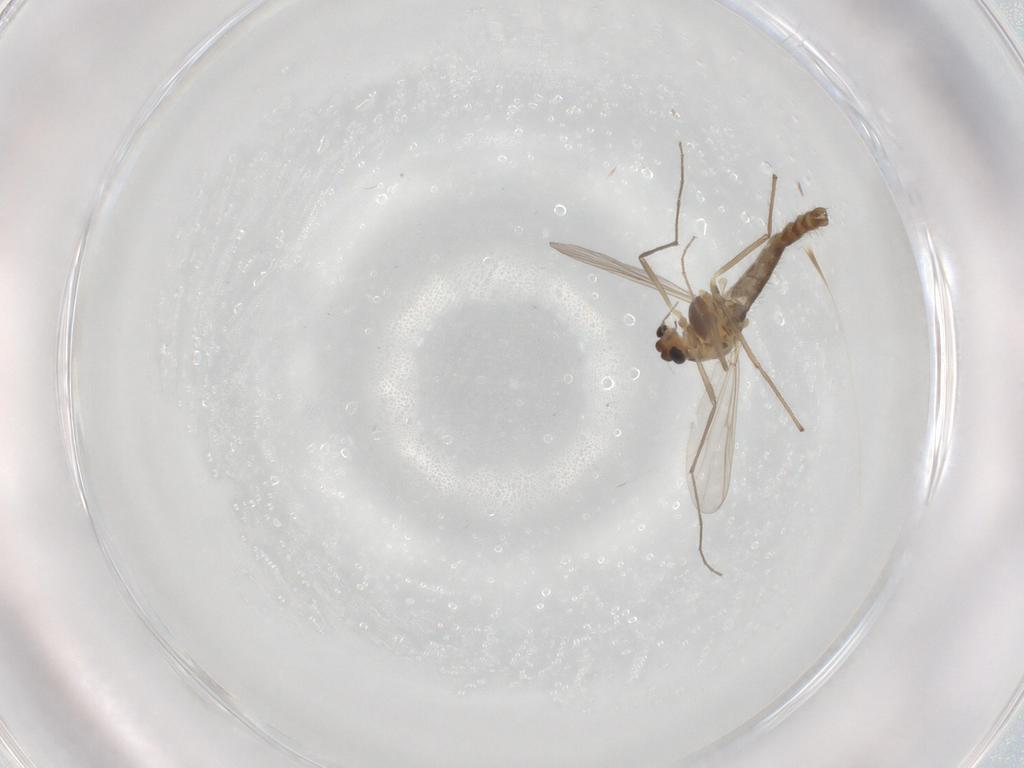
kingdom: Animalia
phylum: Arthropoda
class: Insecta
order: Diptera
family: Chironomidae
